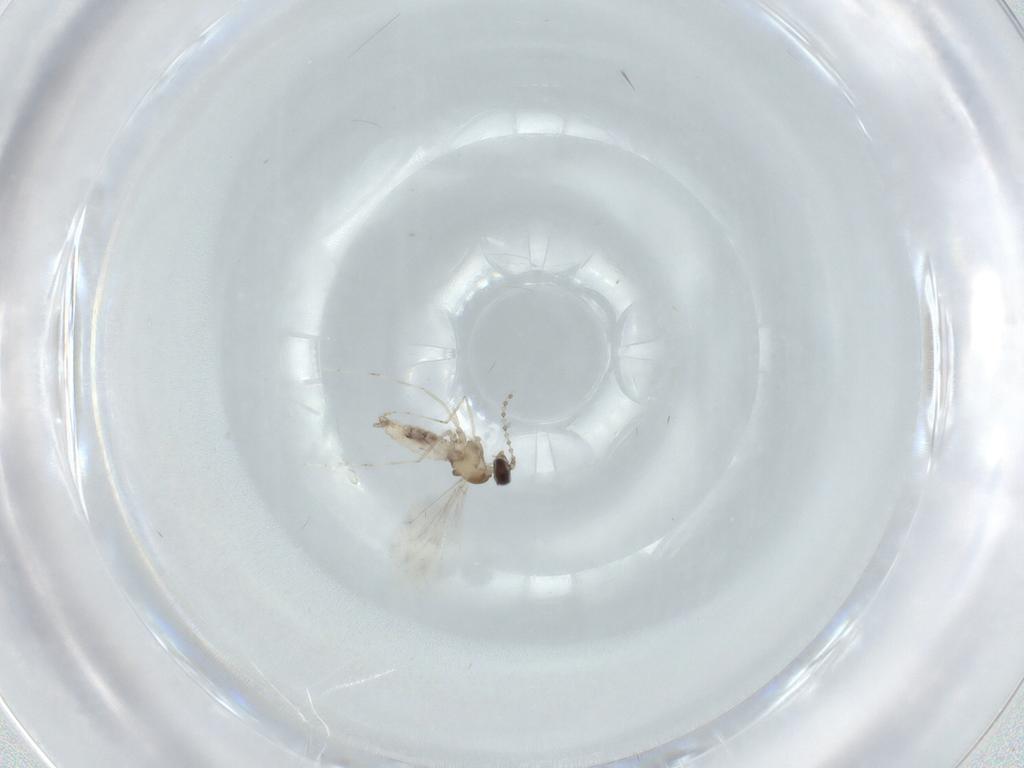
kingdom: Animalia
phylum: Arthropoda
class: Insecta
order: Diptera
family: Cecidomyiidae
